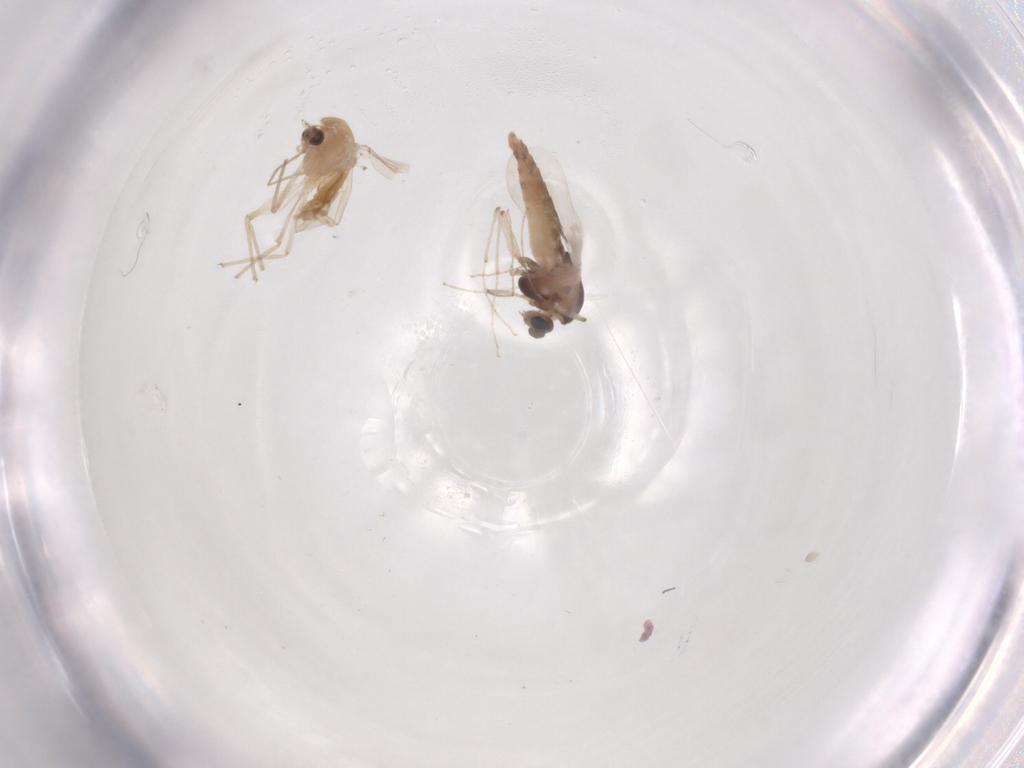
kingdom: Animalia
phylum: Arthropoda
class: Insecta
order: Diptera
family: Chironomidae
